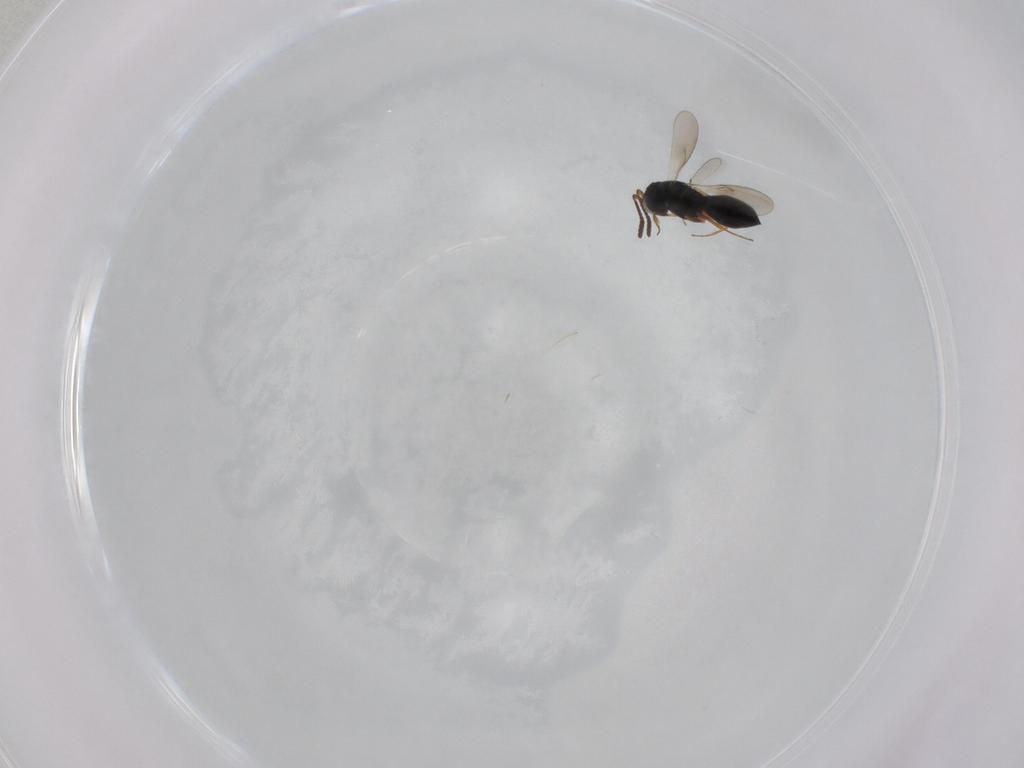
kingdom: Animalia
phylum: Arthropoda
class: Insecta
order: Hymenoptera
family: Scelionidae
